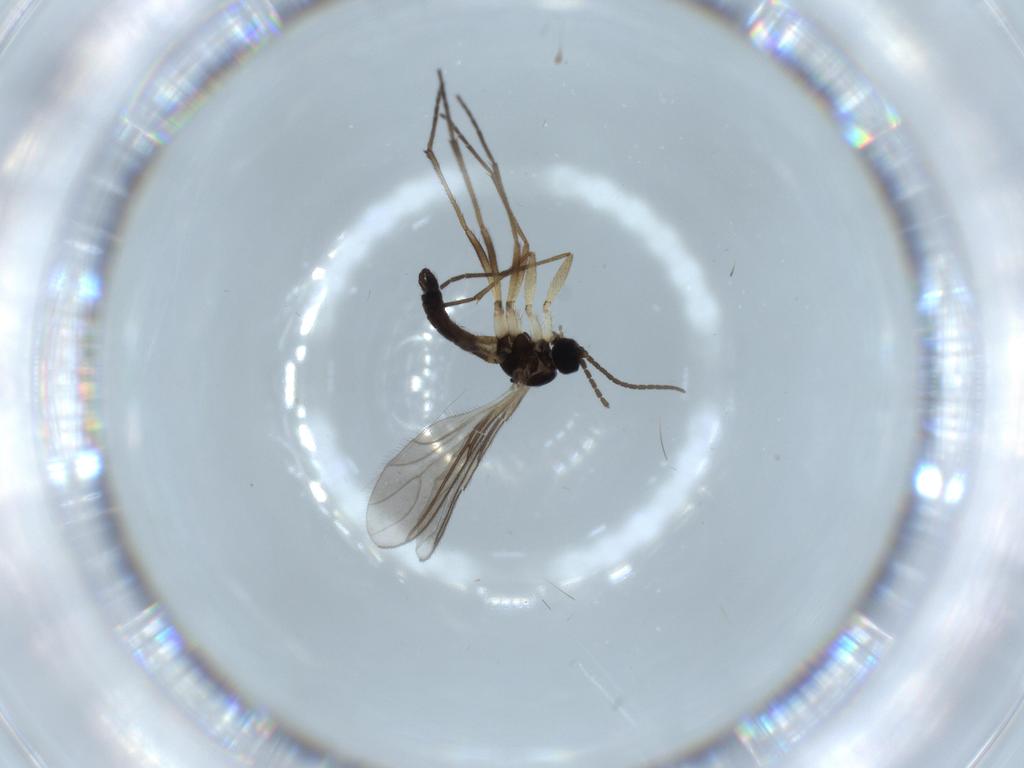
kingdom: Animalia
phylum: Arthropoda
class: Insecta
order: Diptera
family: Sciaridae
